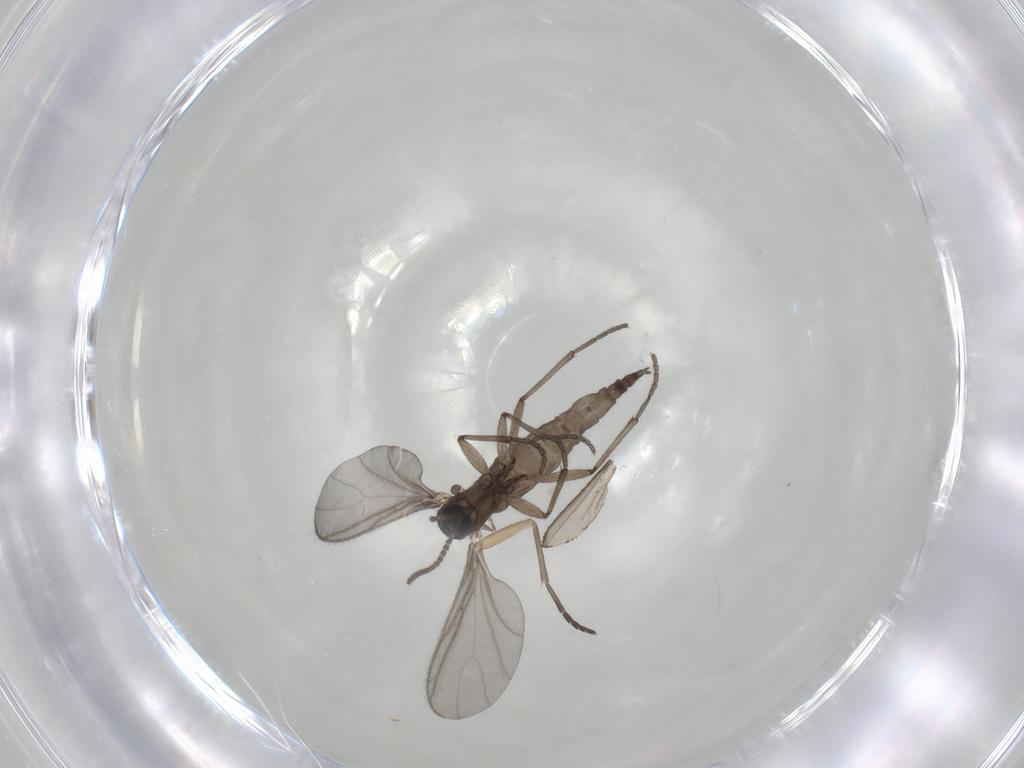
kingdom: Animalia
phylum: Arthropoda
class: Insecta
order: Diptera
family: Sciaridae
